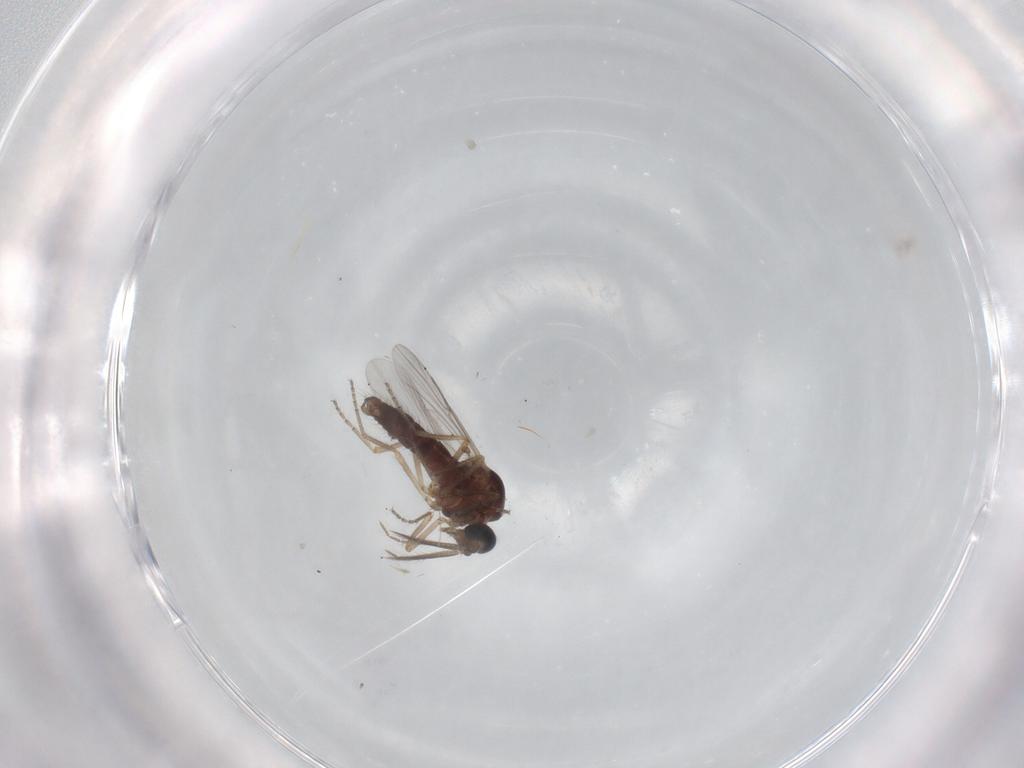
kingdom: Animalia
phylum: Arthropoda
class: Insecta
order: Diptera
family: Ceratopogonidae
